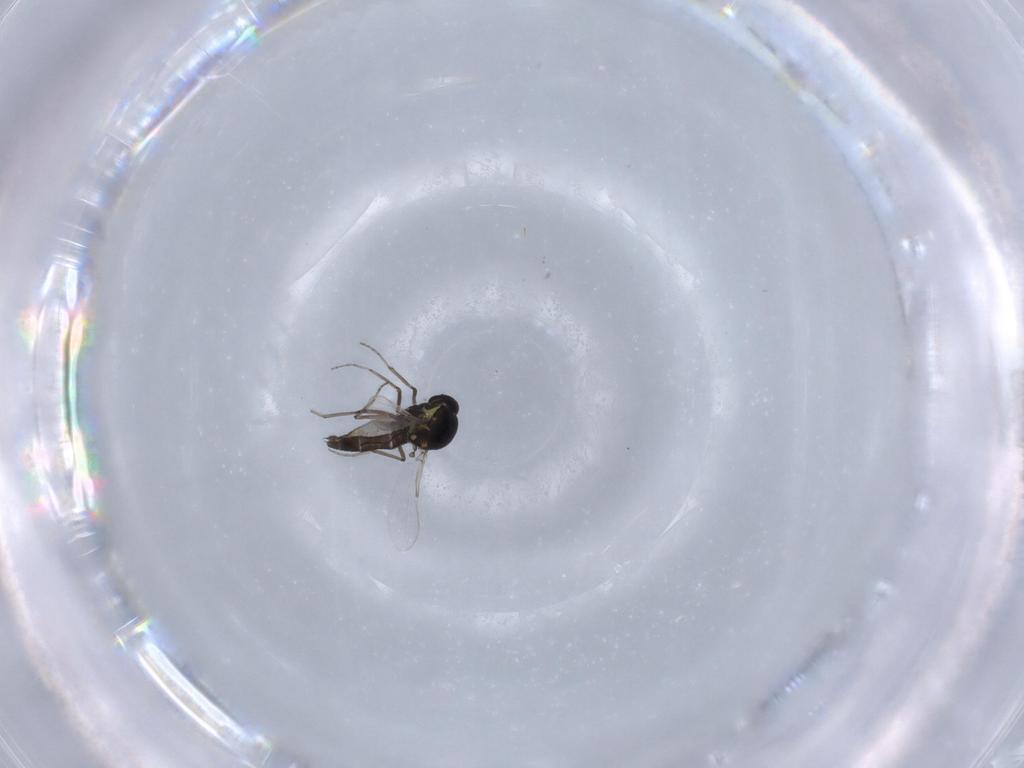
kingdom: Animalia
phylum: Arthropoda
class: Insecta
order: Diptera
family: Ceratopogonidae
